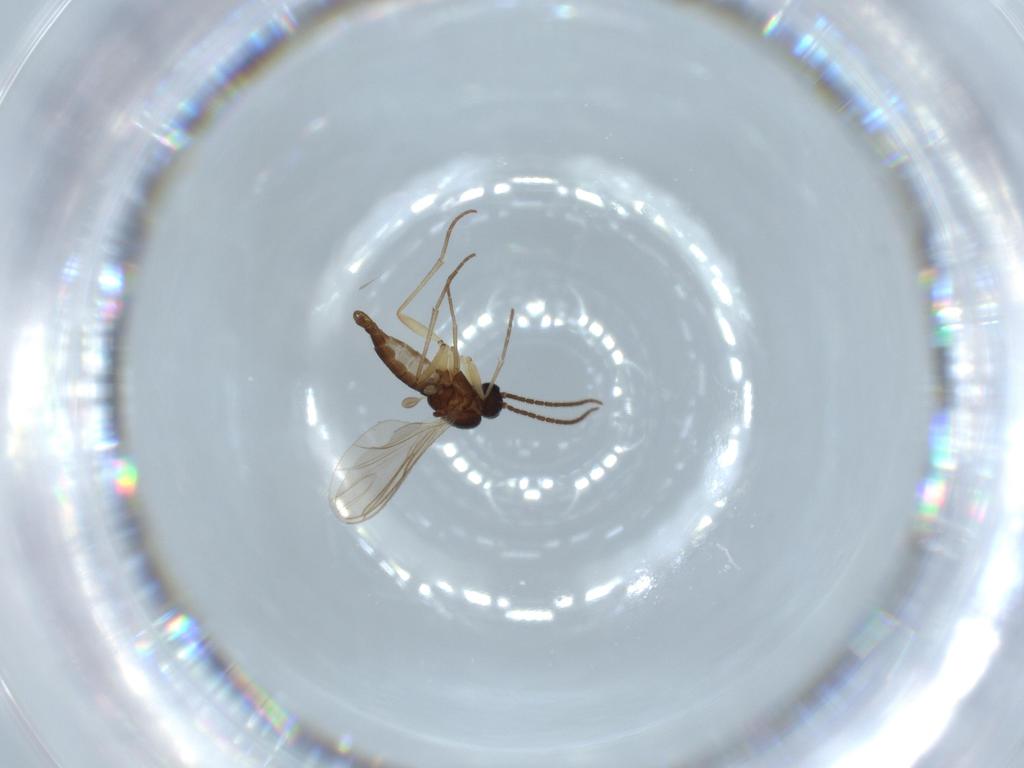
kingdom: Animalia
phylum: Arthropoda
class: Insecta
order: Diptera
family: Sciaridae
